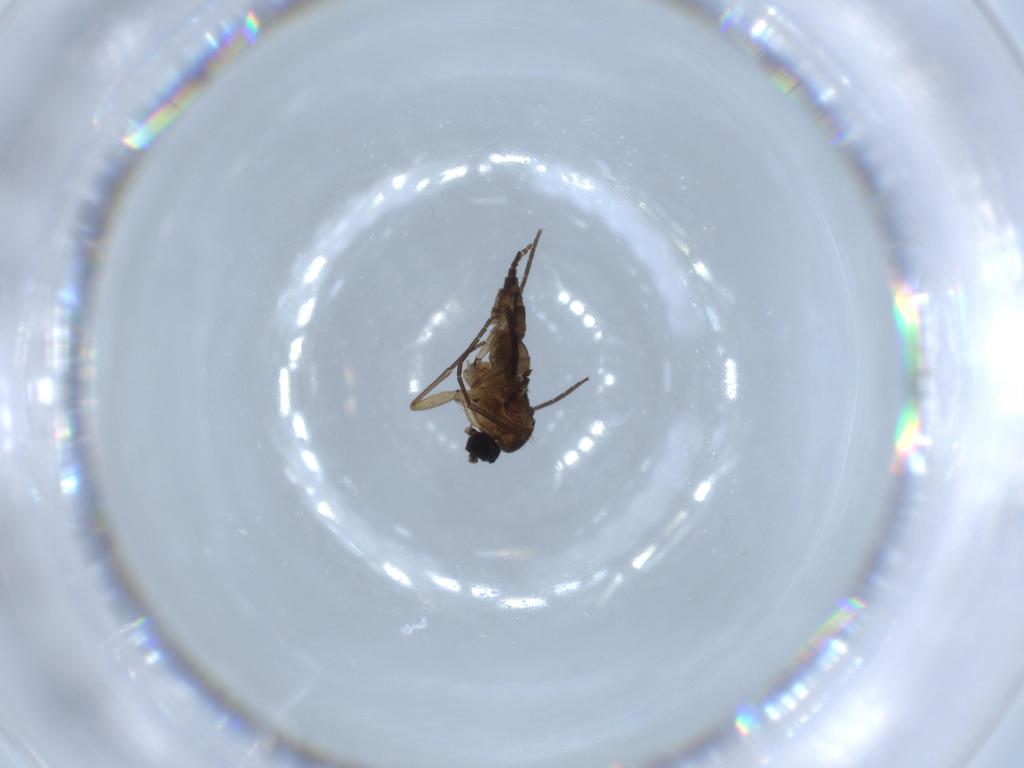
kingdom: Animalia
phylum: Arthropoda
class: Insecta
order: Diptera
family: Sciaridae
